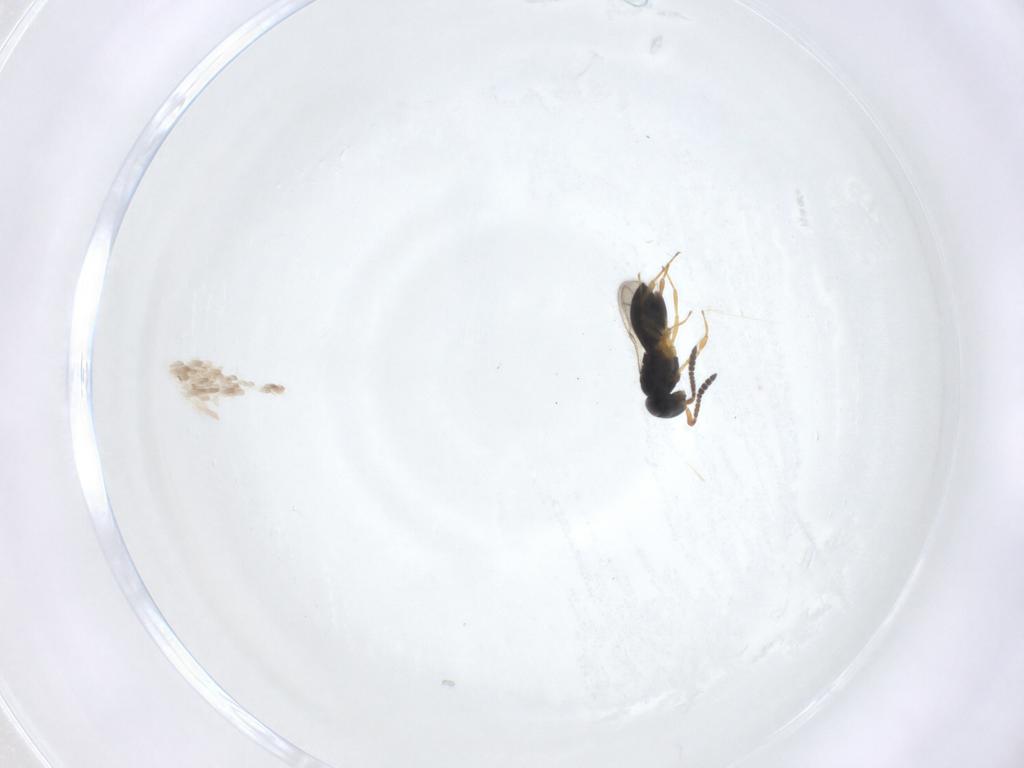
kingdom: Animalia
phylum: Arthropoda
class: Insecta
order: Hymenoptera
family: Scelionidae
